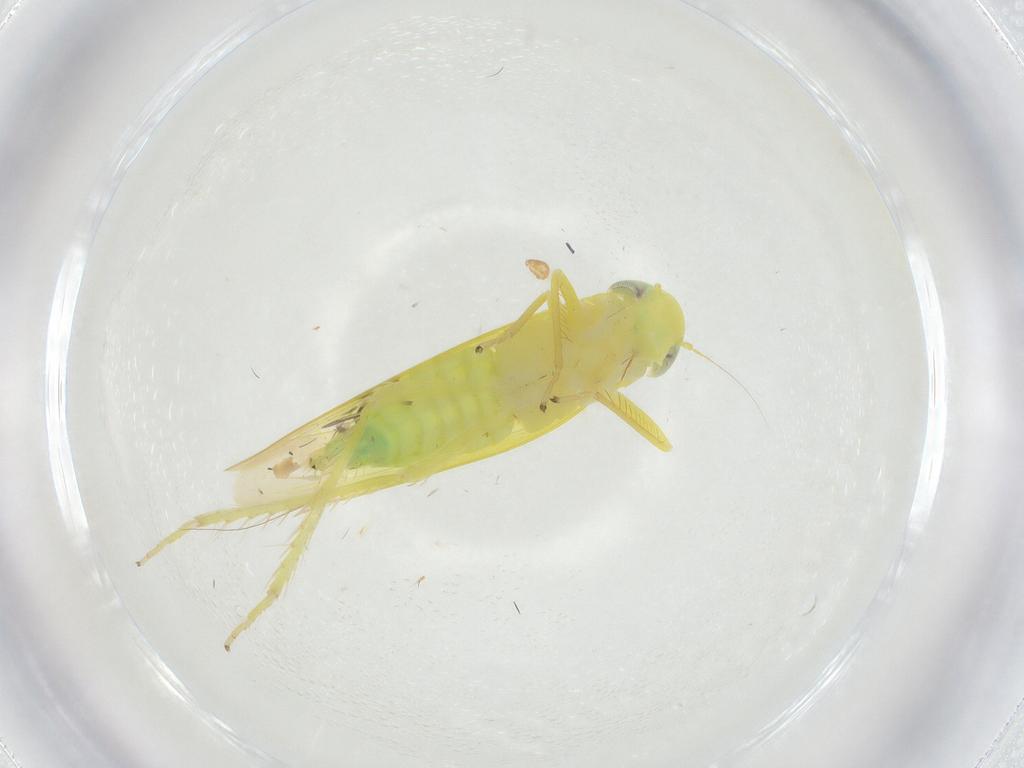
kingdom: Animalia
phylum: Arthropoda
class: Insecta
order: Hemiptera
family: Cicadellidae
